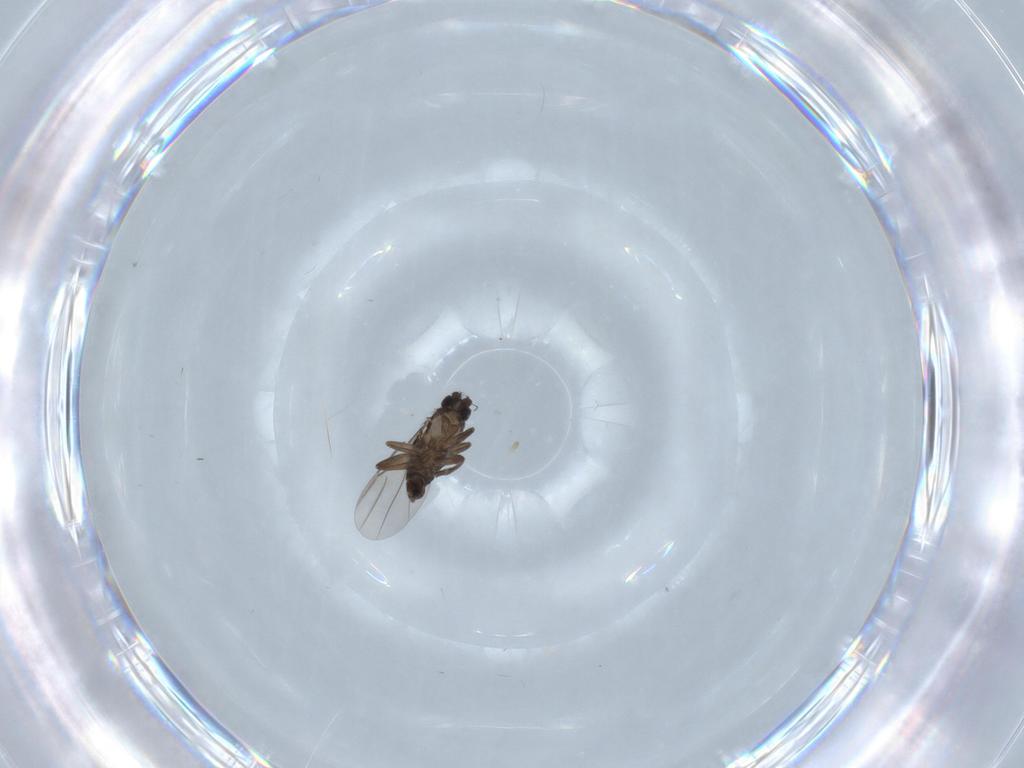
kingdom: Animalia
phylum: Arthropoda
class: Insecta
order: Diptera
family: Phoridae
